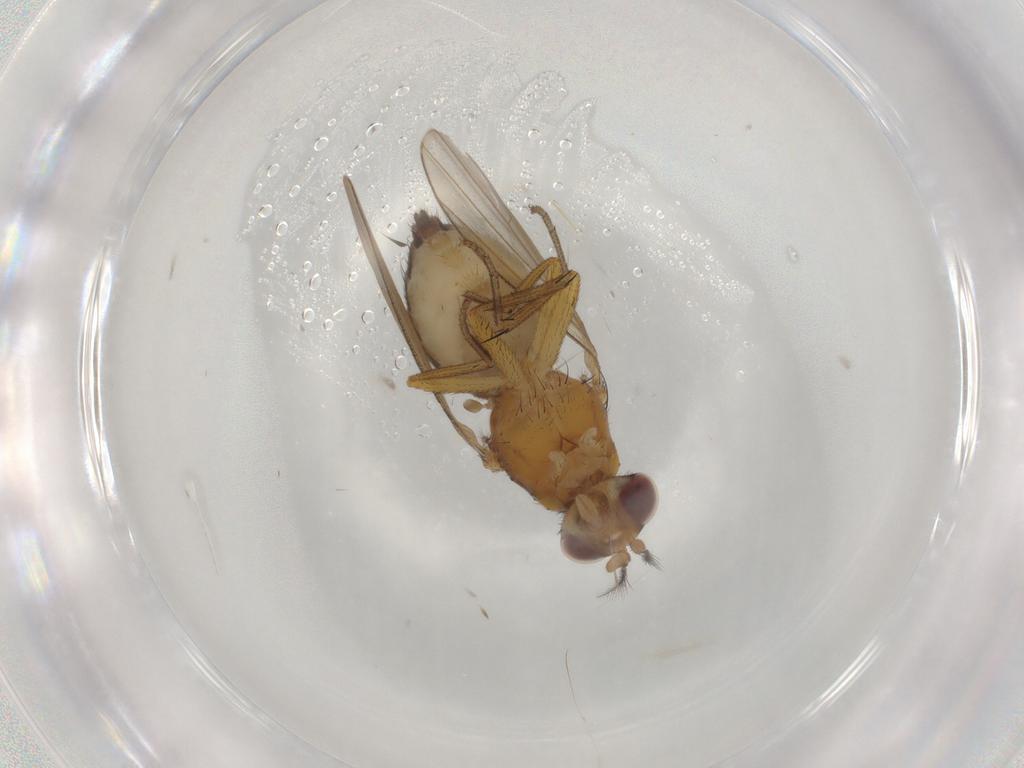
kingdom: Animalia
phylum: Arthropoda
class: Insecta
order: Diptera
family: Lauxaniidae
